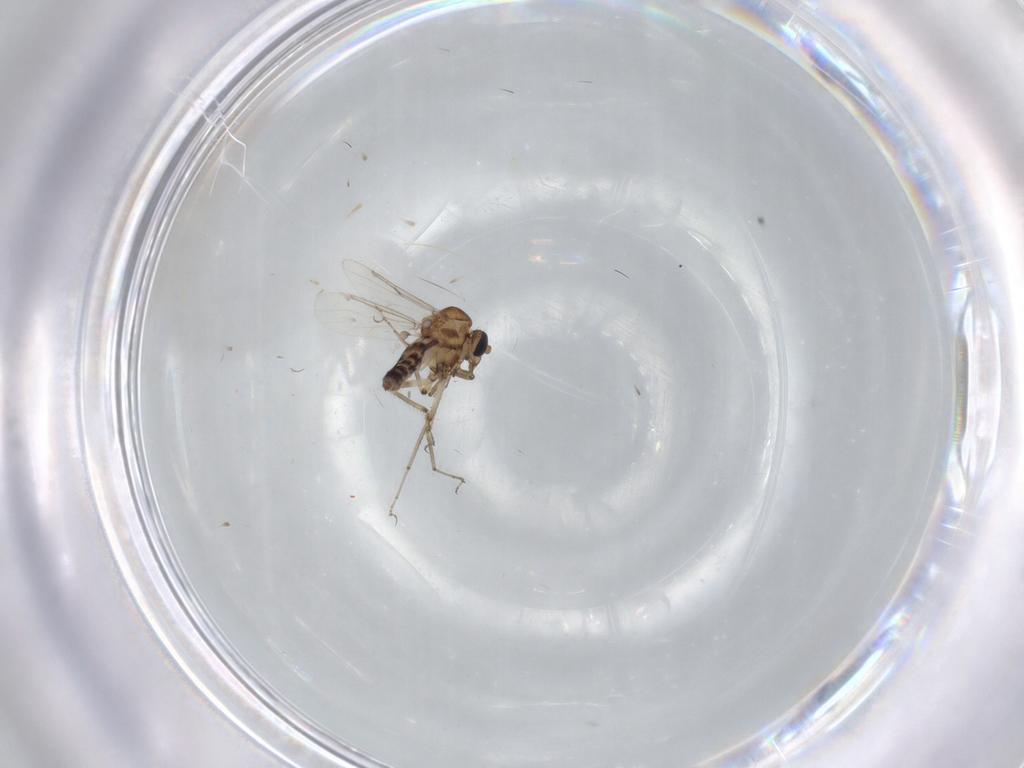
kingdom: Animalia
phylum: Arthropoda
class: Insecta
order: Diptera
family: Ceratopogonidae
